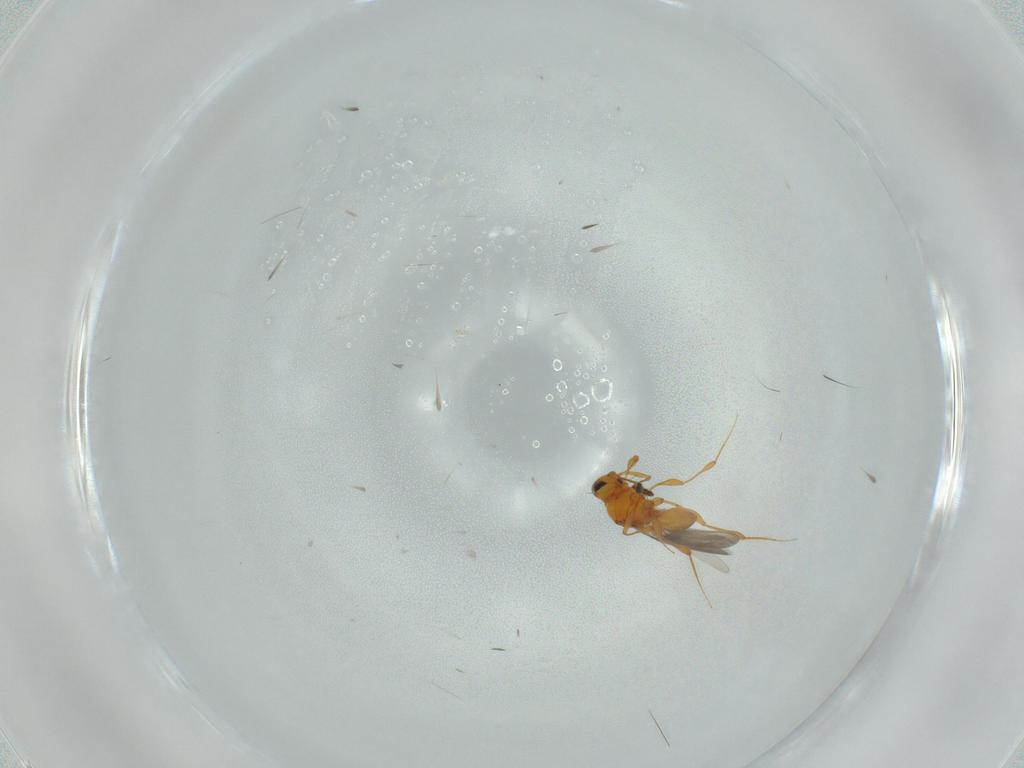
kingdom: Animalia
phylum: Arthropoda
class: Insecta
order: Hymenoptera
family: Platygastridae
